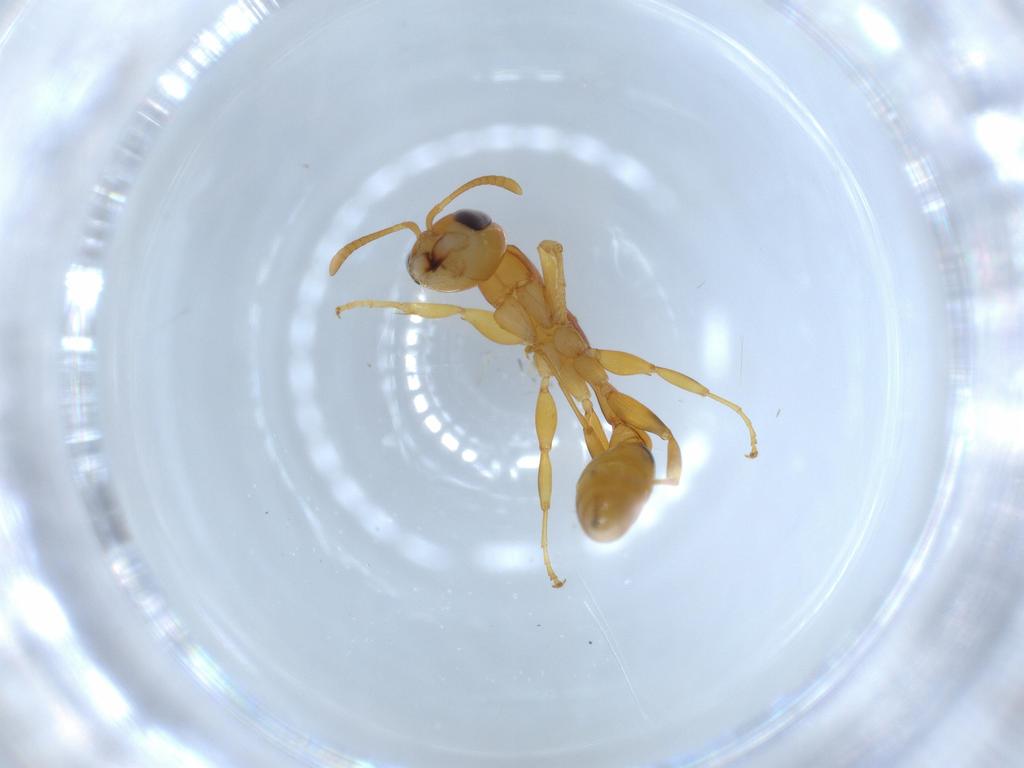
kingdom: Animalia
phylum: Arthropoda
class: Insecta
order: Hymenoptera
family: Formicidae
